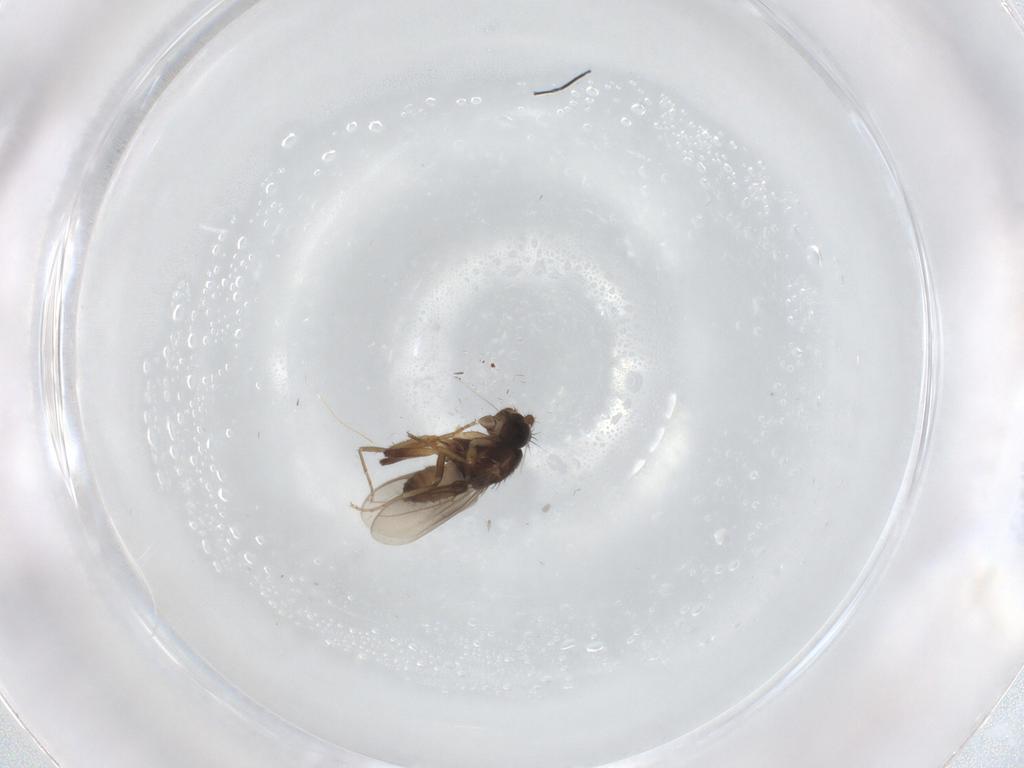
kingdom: Animalia
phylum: Arthropoda
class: Insecta
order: Diptera
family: Sphaeroceridae
